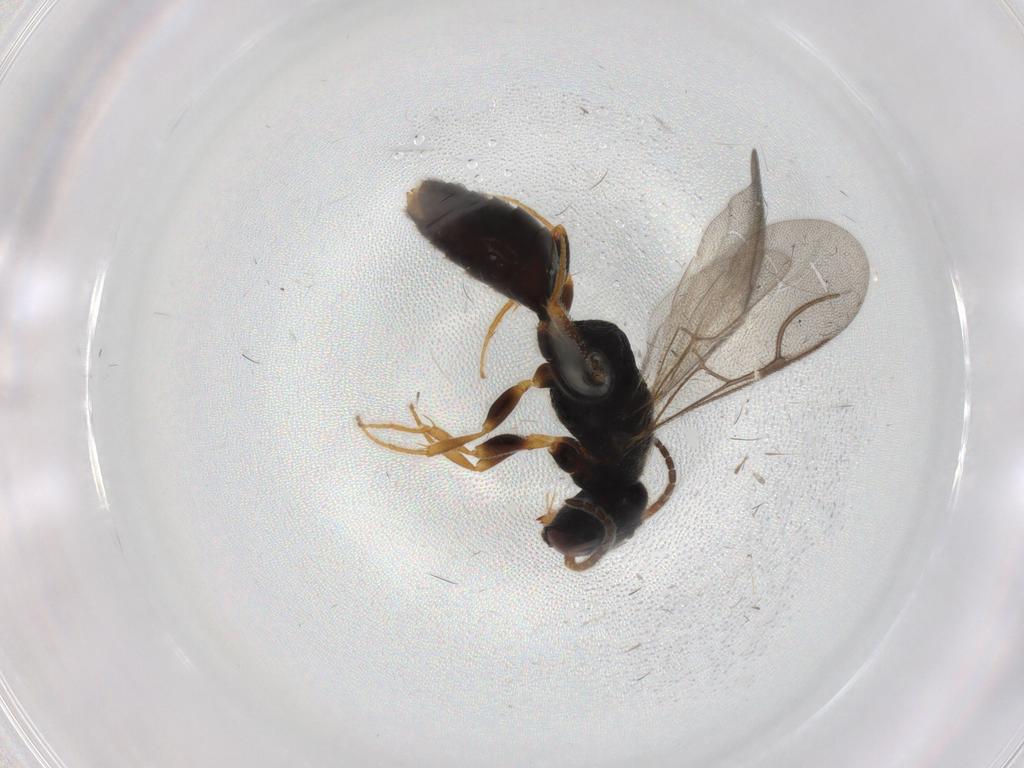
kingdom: Animalia
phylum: Arthropoda
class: Insecta
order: Hymenoptera
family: Bethylidae
